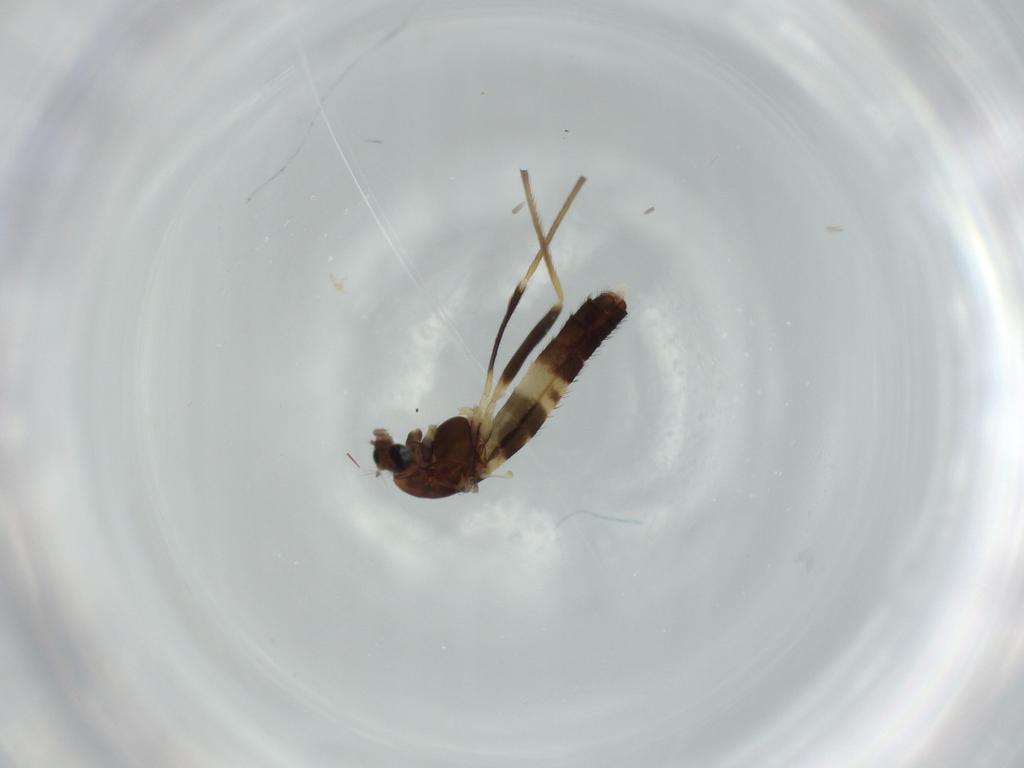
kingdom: Animalia
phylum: Arthropoda
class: Insecta
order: Diptera
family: Chironomidae
